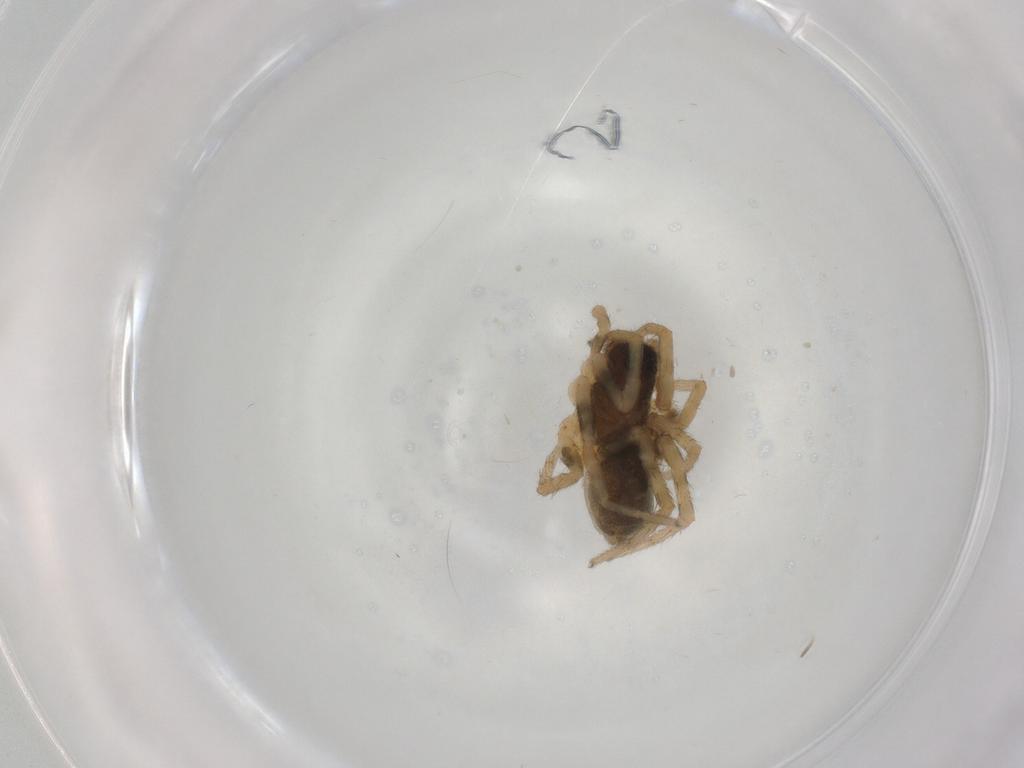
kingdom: Animalia
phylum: Arthropoda
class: Arachnida
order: Araneae
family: Lycosidae
